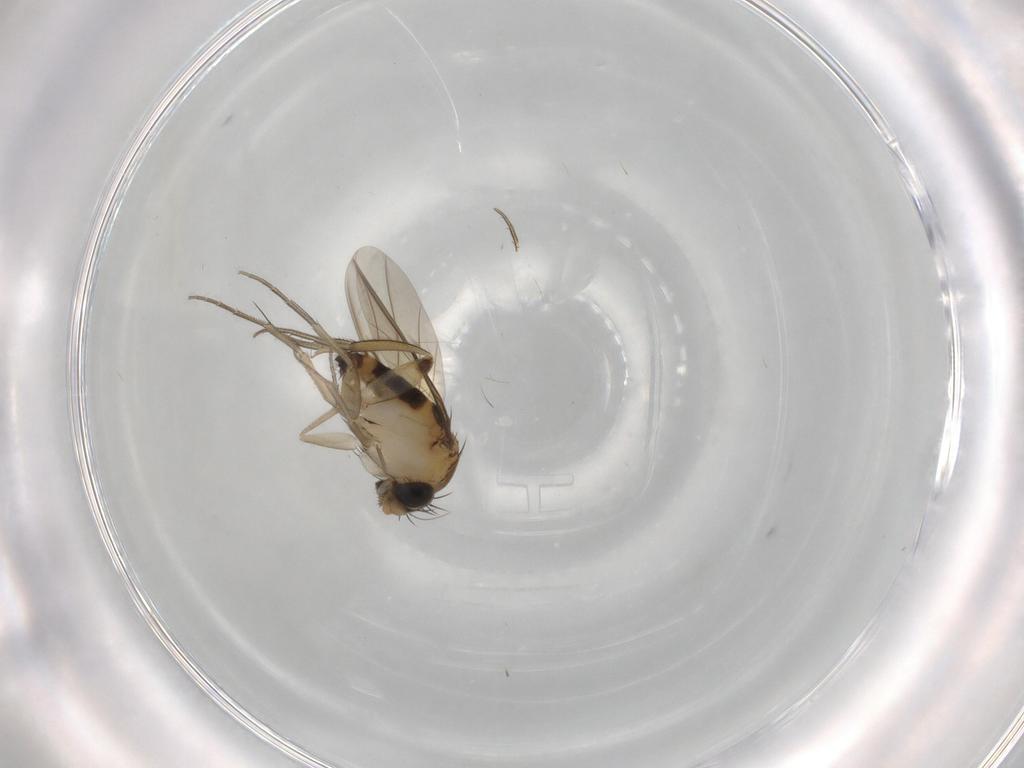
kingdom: Animalia
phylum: Arthropoda
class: Insecta
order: Diptera
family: Phoridae
